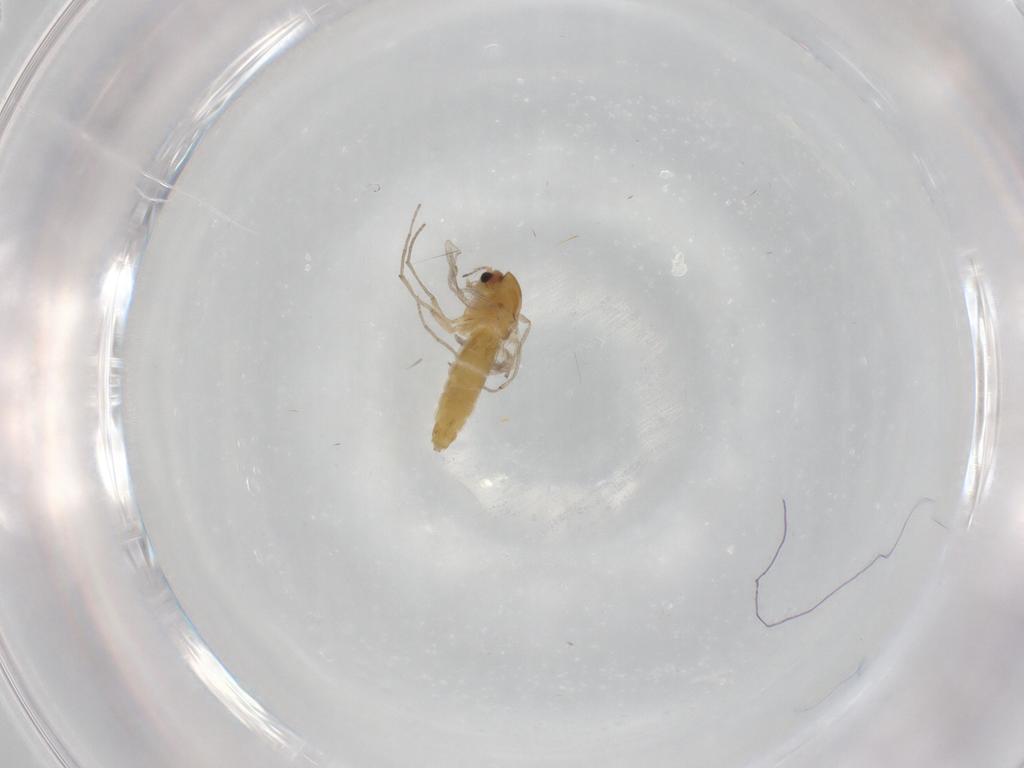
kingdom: Animalia
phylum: Arthropoda
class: Insecta
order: Diptera
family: Chironomidae
